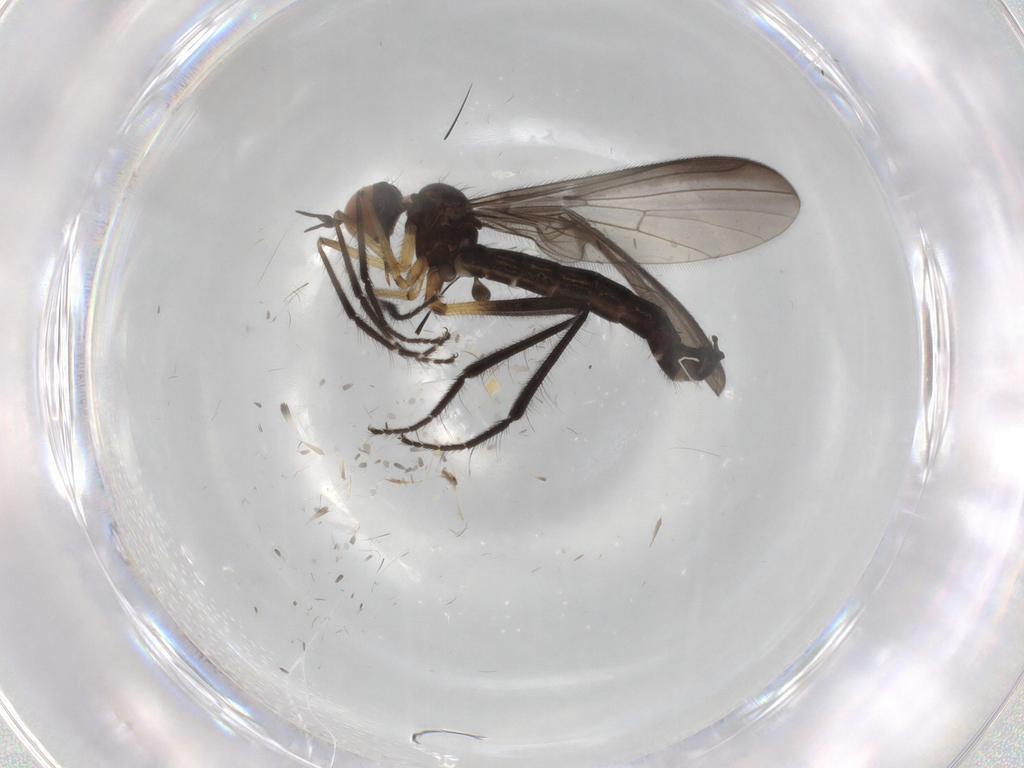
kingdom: Animalia
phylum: Arthropoda
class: Insecta
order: Diptera
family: Empididae
